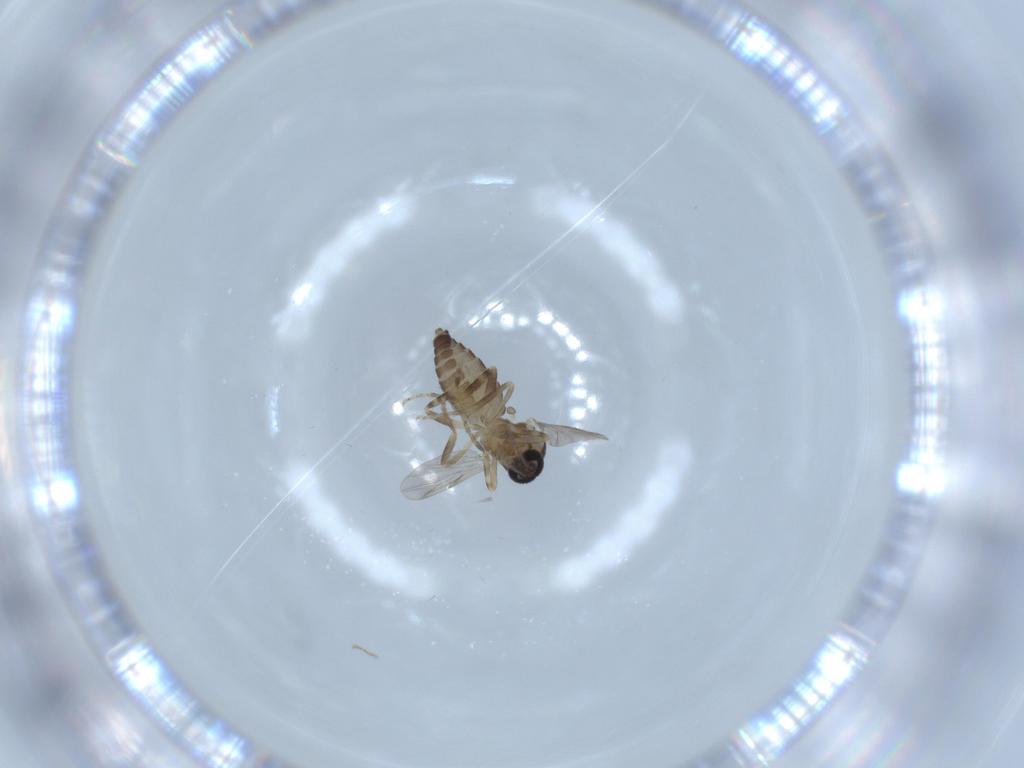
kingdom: Animalia
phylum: Arthropoda
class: Insecta
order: Diptera
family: Ceratopogonidae
